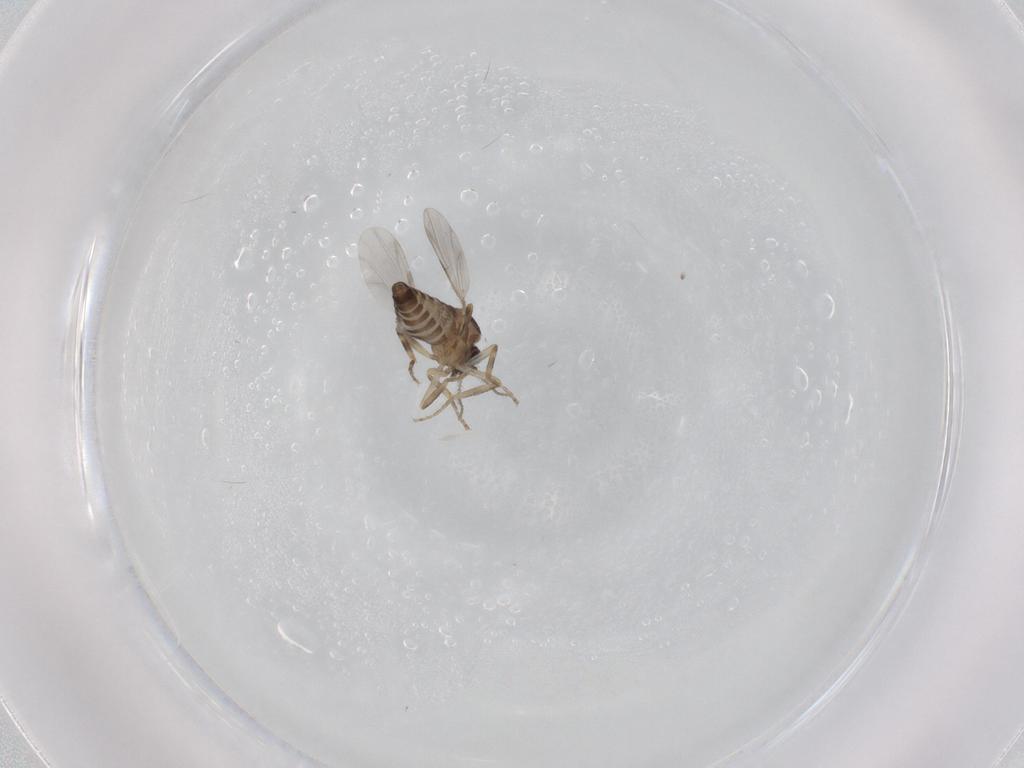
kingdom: Animalia
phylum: Arthropoda
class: Insecta
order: Diptera
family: Ceratopogonidae
